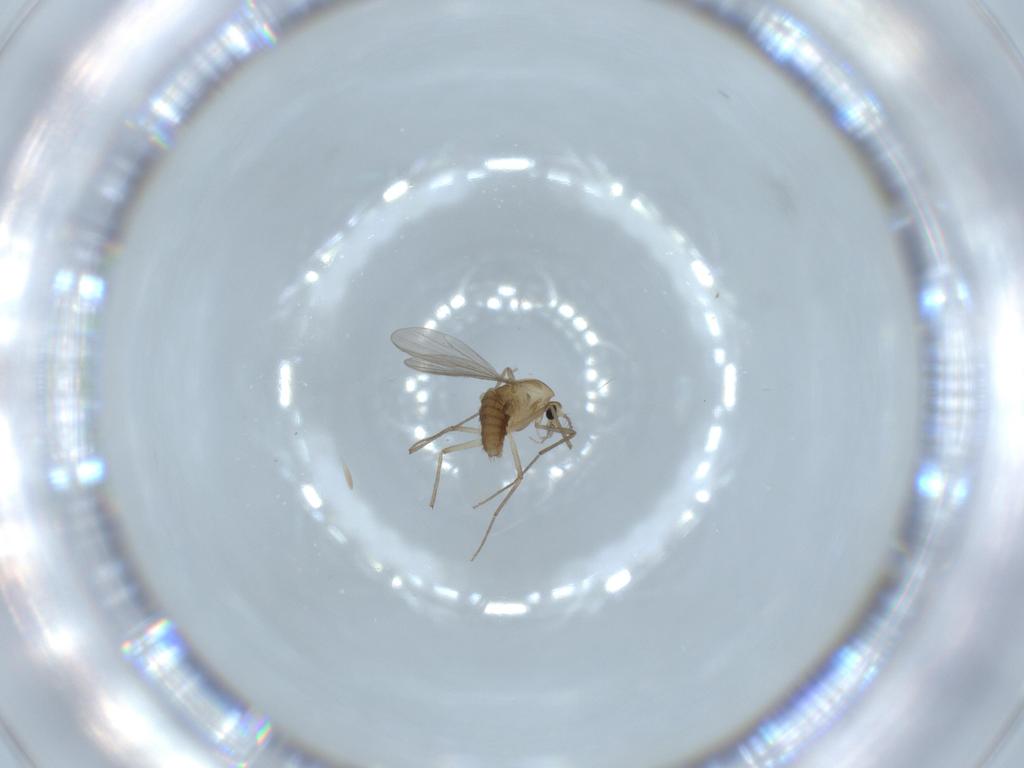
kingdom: Animalia
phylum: Arthropoda
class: Insecta
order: Diptera
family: Chironomidae
